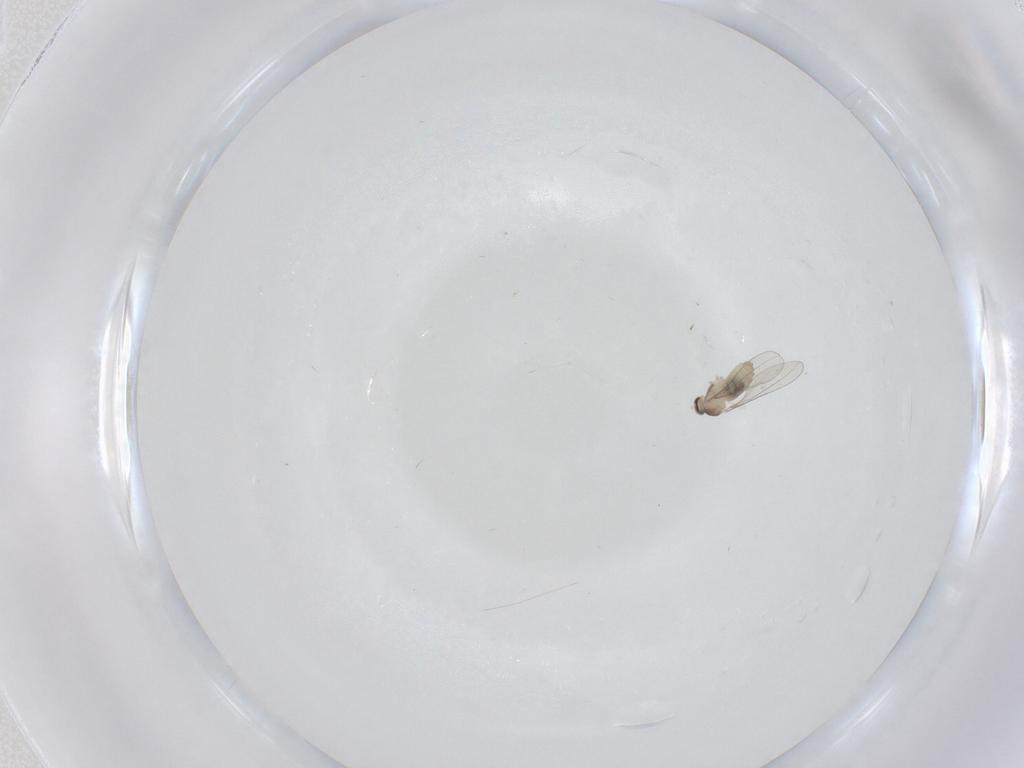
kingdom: Animalia
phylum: Arthropoda
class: Insecta
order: Diptera
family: Cecidomyiidae
